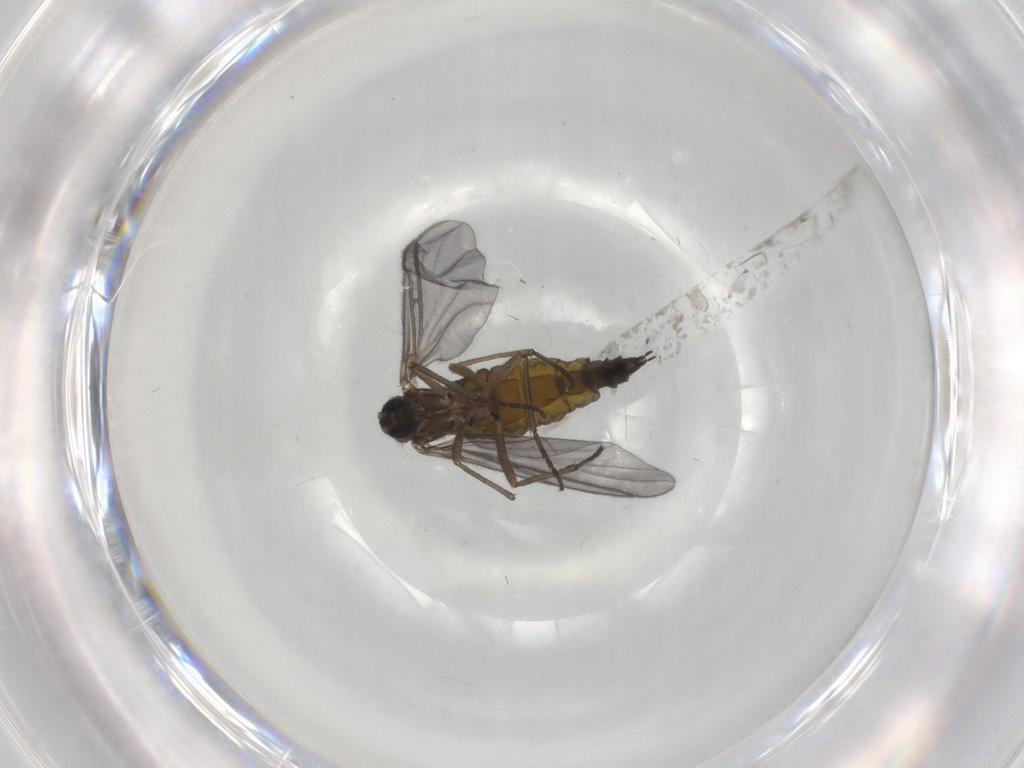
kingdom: Animalia
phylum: Arthropoda
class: Insecta
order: Diptera
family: Sciaridae
